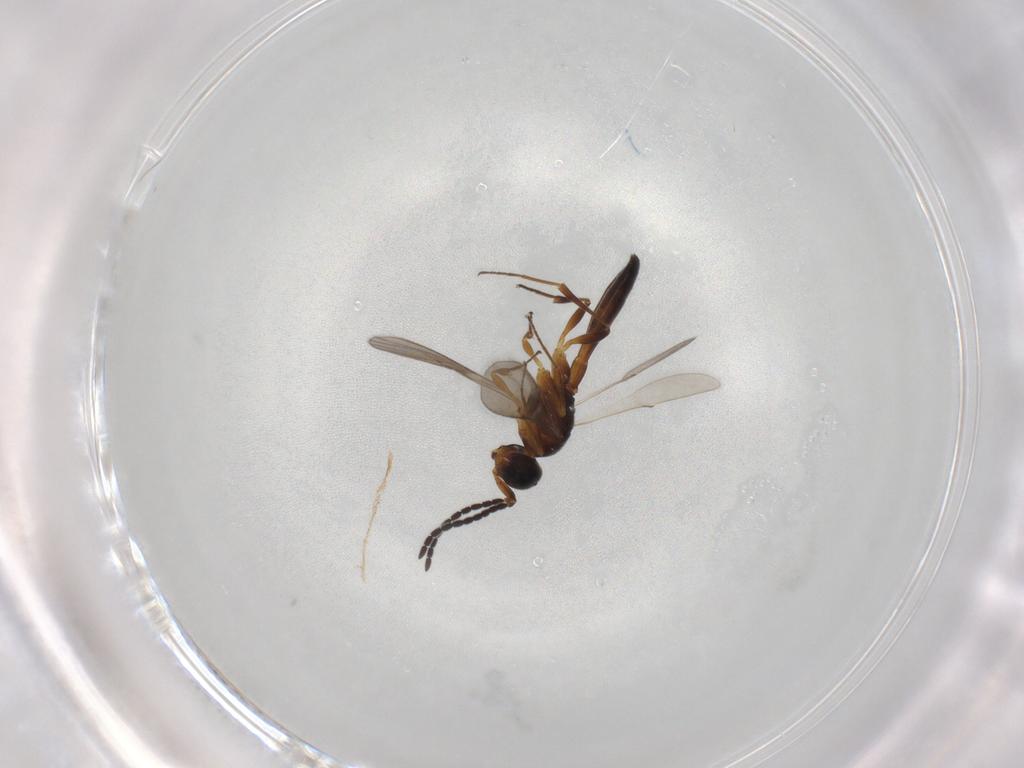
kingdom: Animalia
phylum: Arthropoda
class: Insecta
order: Hymenoptera
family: Scelionidae
